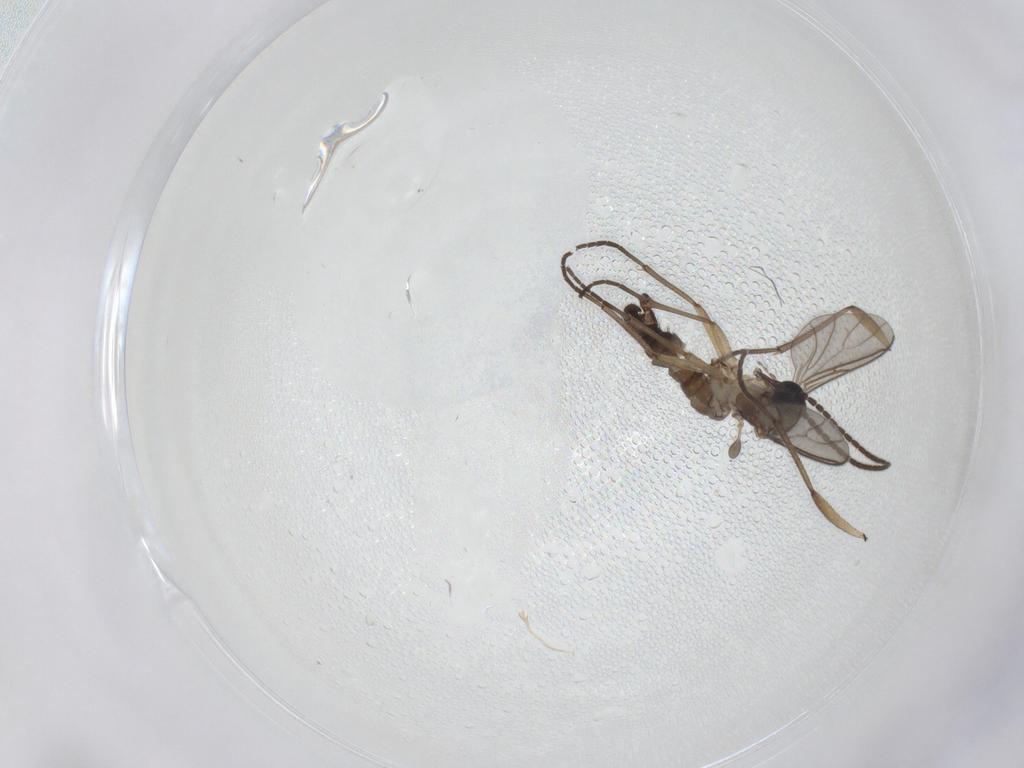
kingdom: Animalia
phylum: Arthropoda
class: Insecta
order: Diptera
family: Sciaridae
